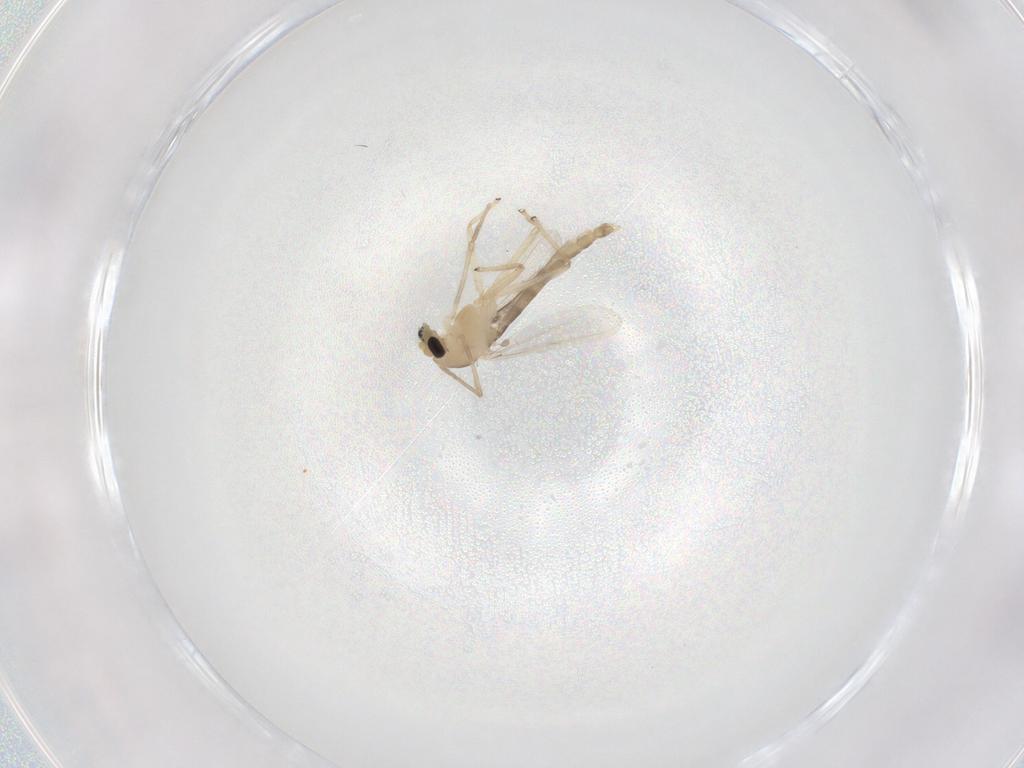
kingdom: Animalia
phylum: Arthropoda
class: Insecta
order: Diptera
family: Chironomidae
